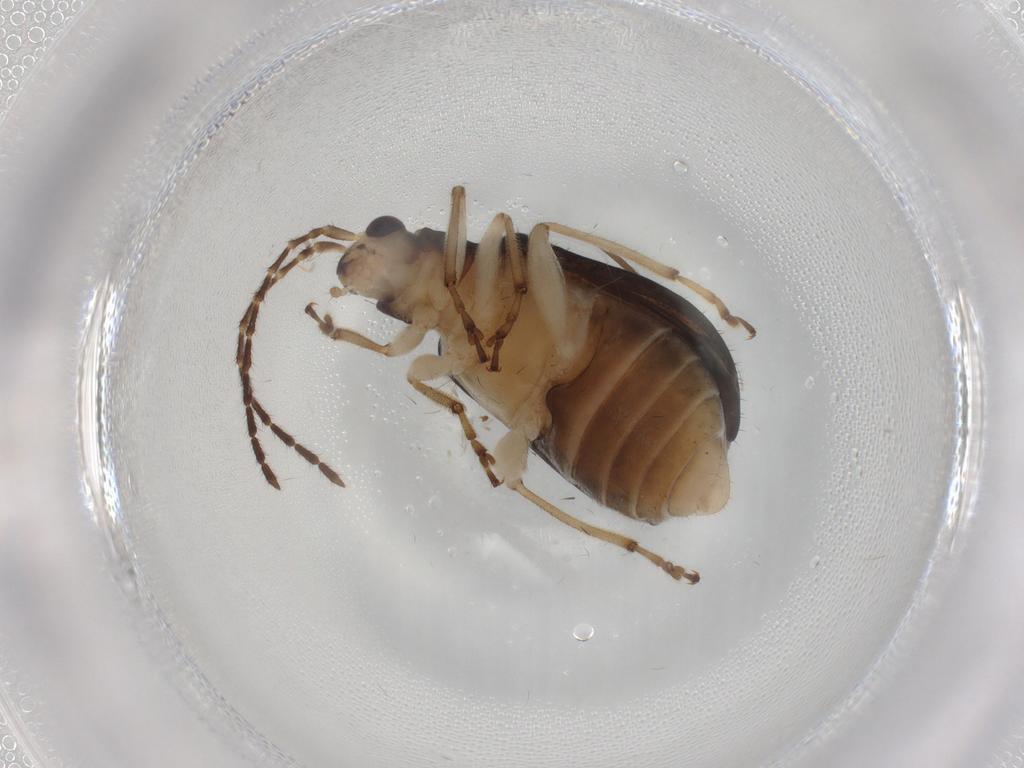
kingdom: Animalia
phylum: Arthropoda
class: Insecta
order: Coleoptera
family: Chrysomelidae
